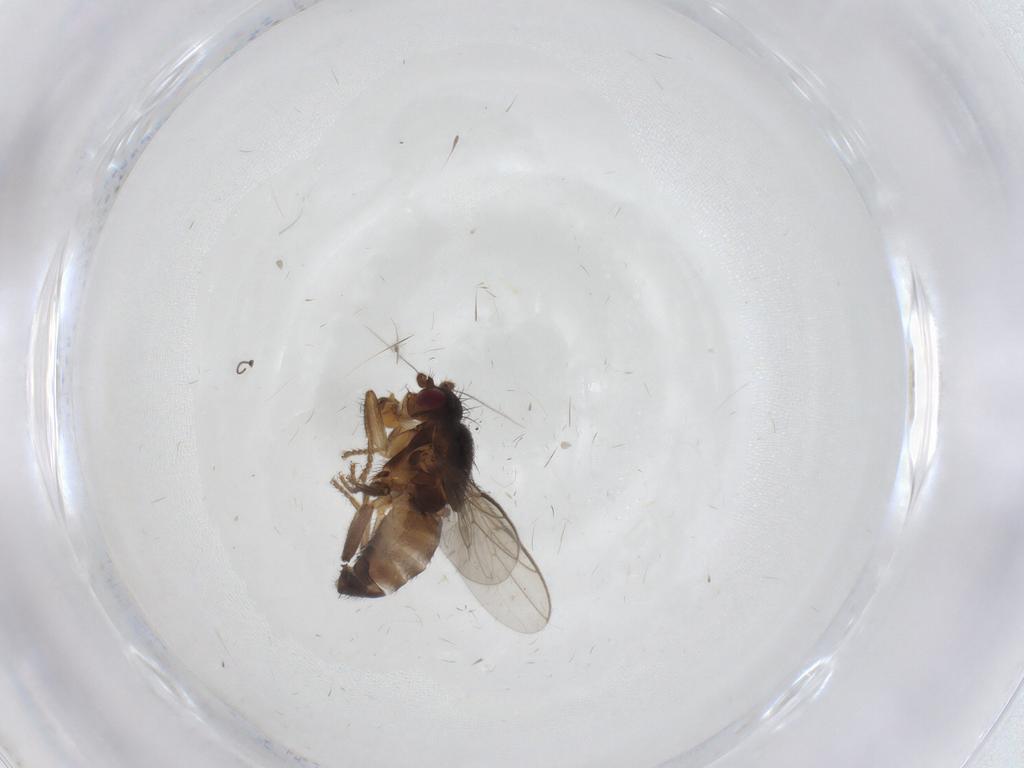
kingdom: Animalia
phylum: Arthropoda
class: Insecta
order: Diptera
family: Sphaeroceridae
